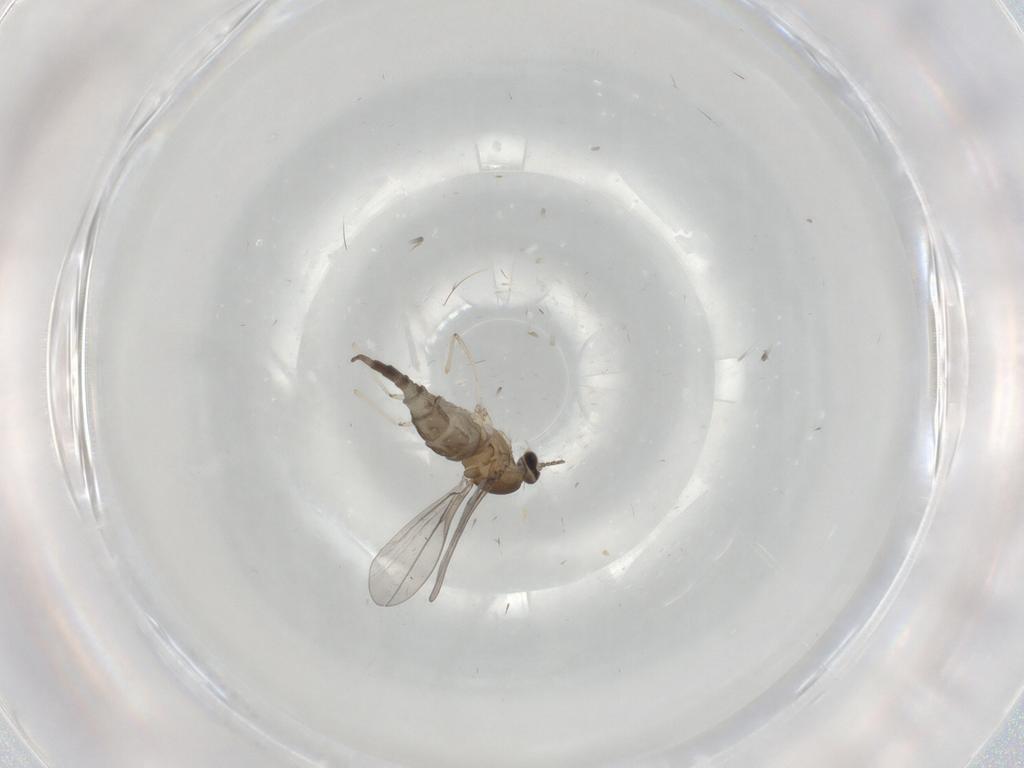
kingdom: Animalia
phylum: Arthropoda
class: Insecta
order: Diptera
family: Cecidomyiidae
